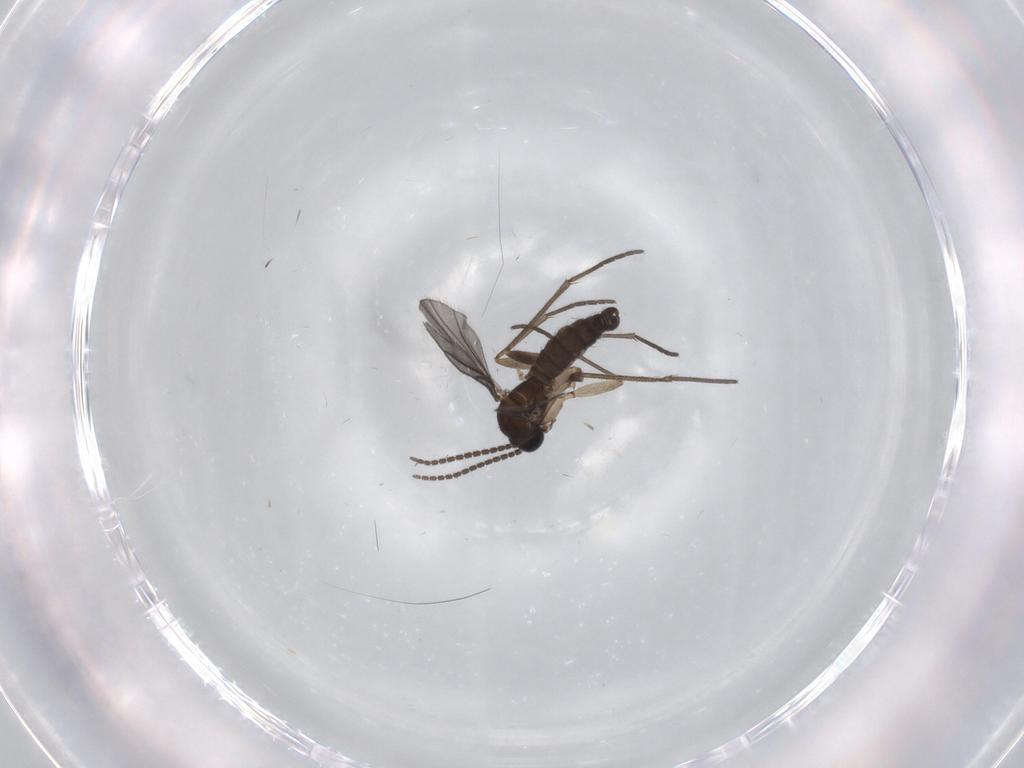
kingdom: Animalia
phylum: Arthropoda
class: Insecta
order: Diptera
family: Sciaridae
